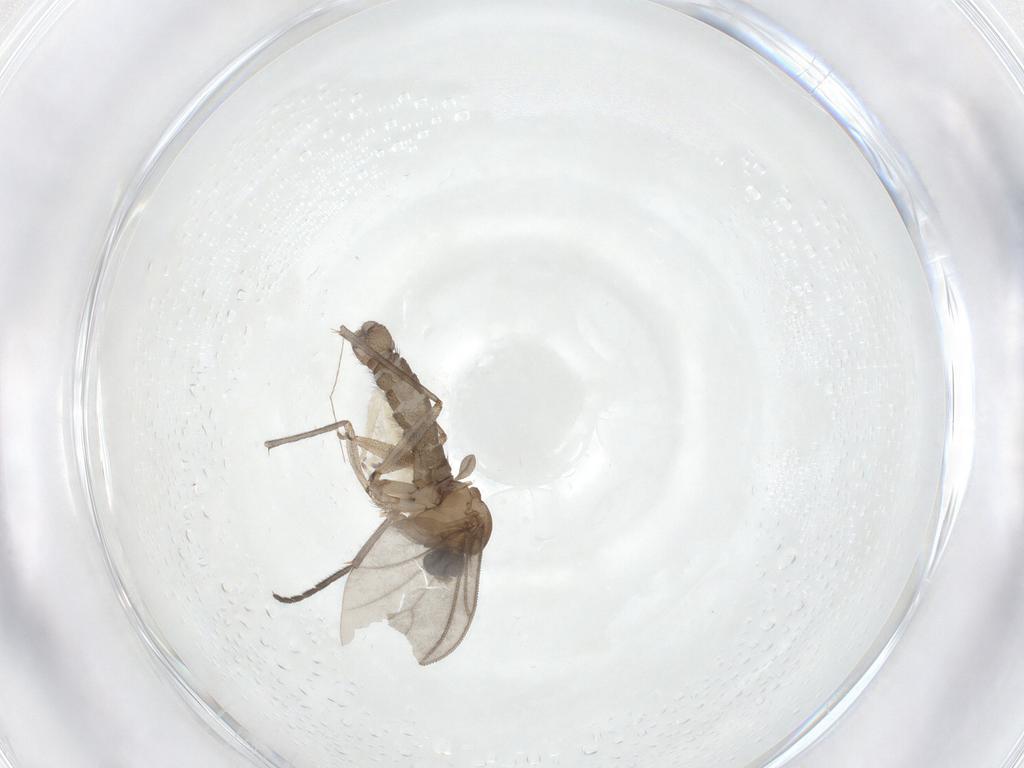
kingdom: Animalia
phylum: Arthropoda
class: Insecta
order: Diptera
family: Sciaridae
